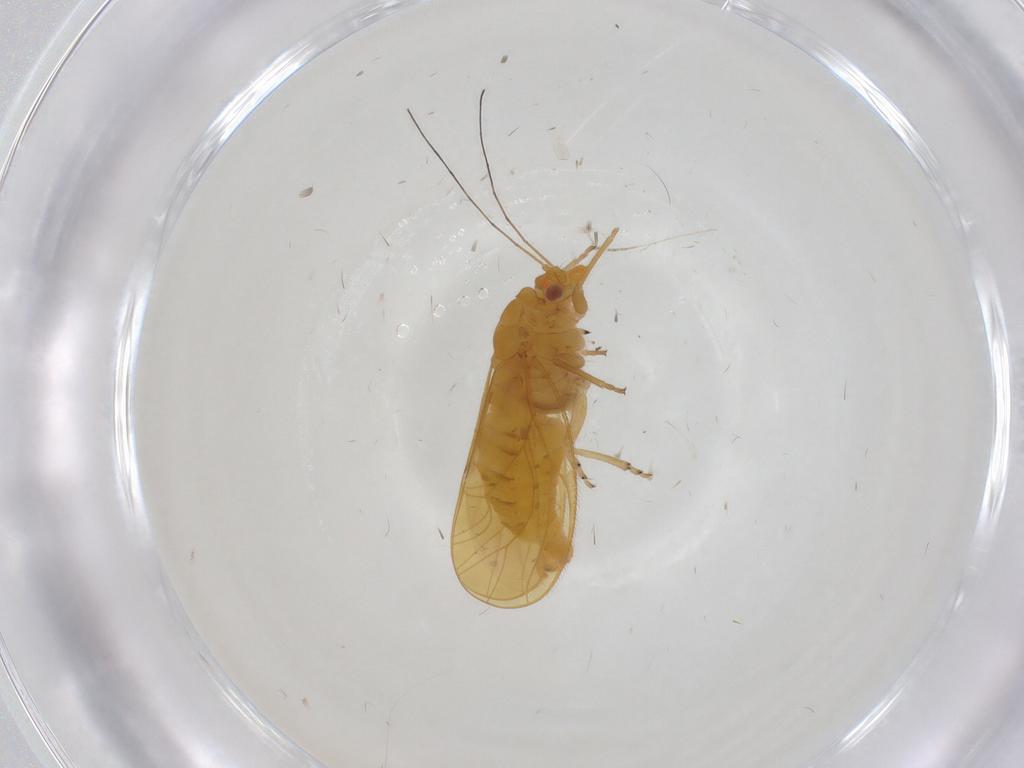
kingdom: Animalia
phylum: Arthropoda
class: Insecta
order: Hemiptera
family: Psyllidae
